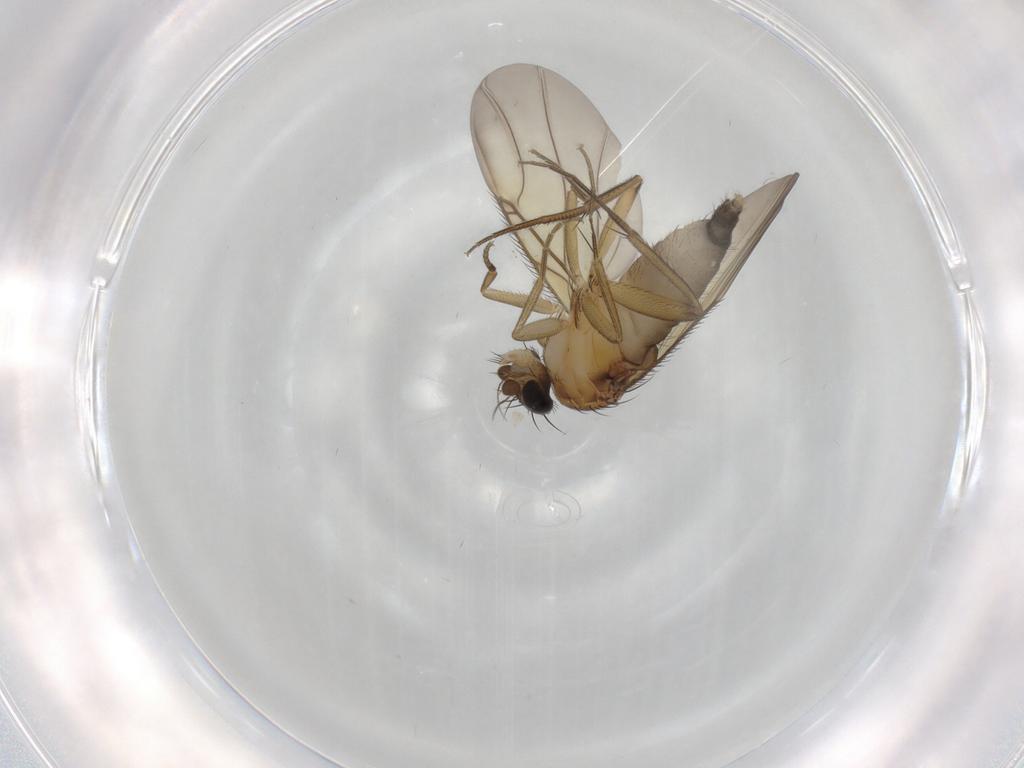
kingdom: Animalia
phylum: Arthropoda
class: Insecta
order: Diptera
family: Phoridae
